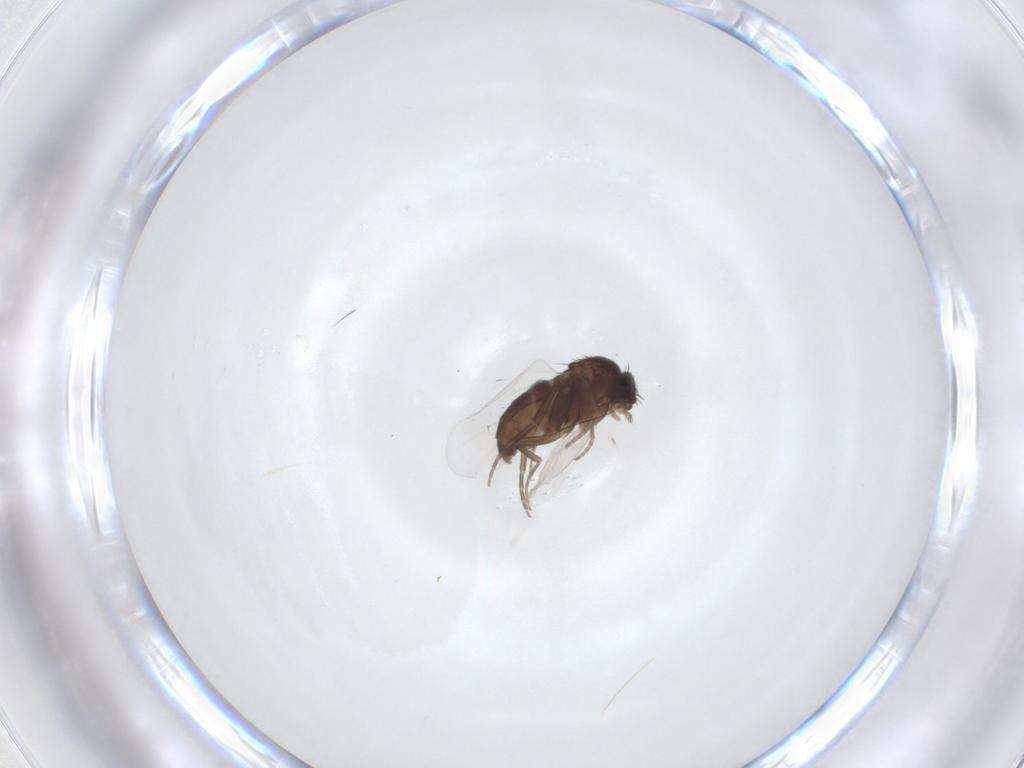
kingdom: Animalia
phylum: Arthropoda
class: Insecta
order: Diptera
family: Phoridae
